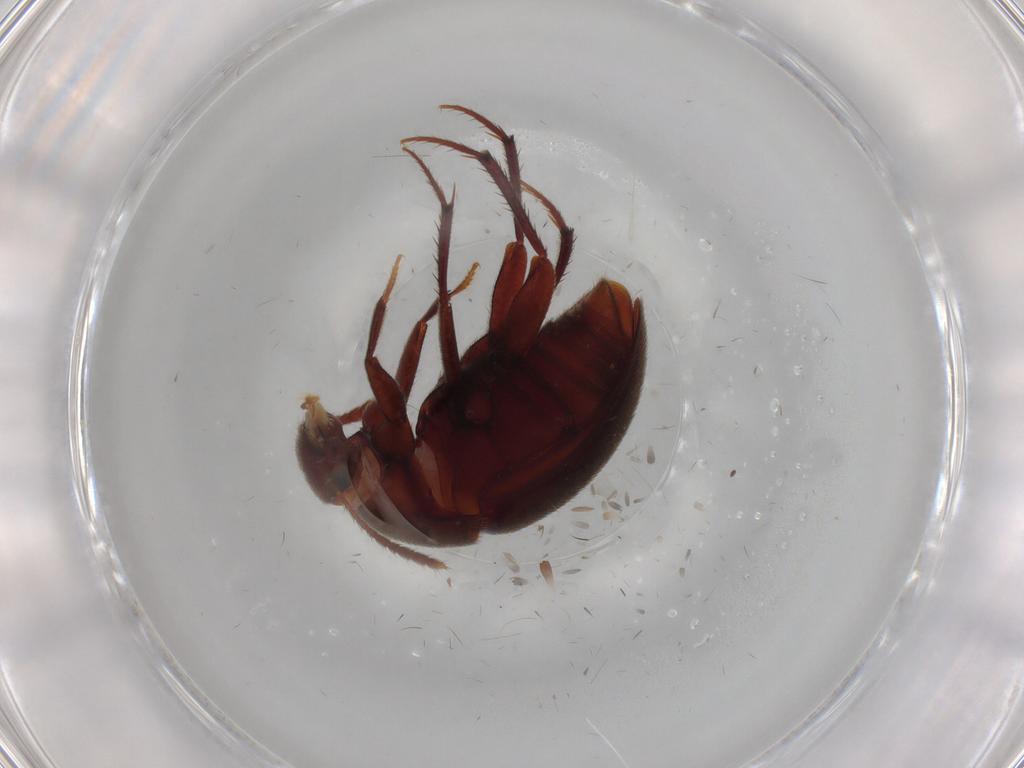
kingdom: Animalia
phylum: Arthropoda
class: Insecta
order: Coleoptera
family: Leiodidae
